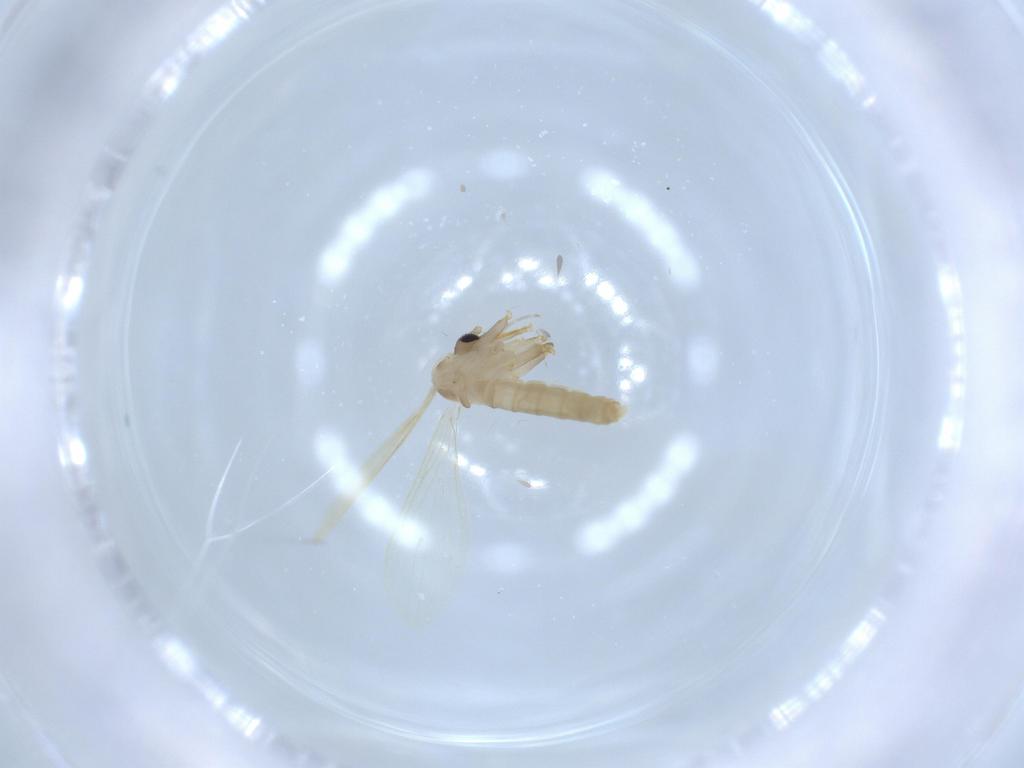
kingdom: Animalia
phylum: Arthropoda
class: Insecta
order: Diptera
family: Psychodidae
